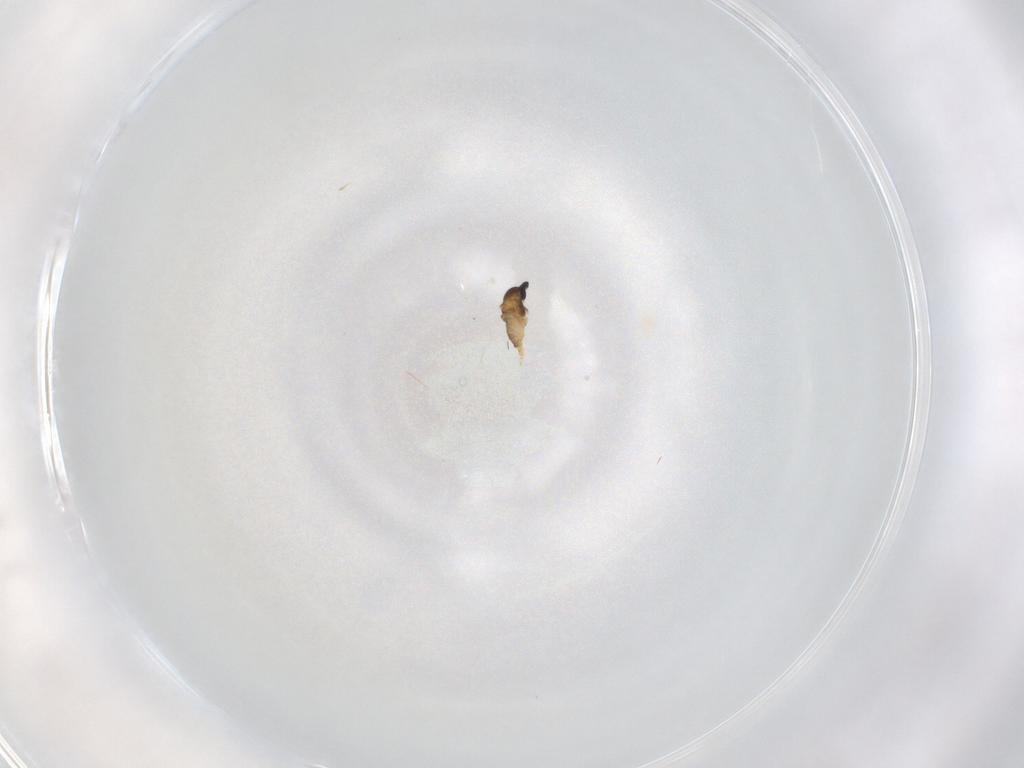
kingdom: Animalia
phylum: Arthropoda
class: Insecta
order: Diptera
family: Cecidomyiidae
